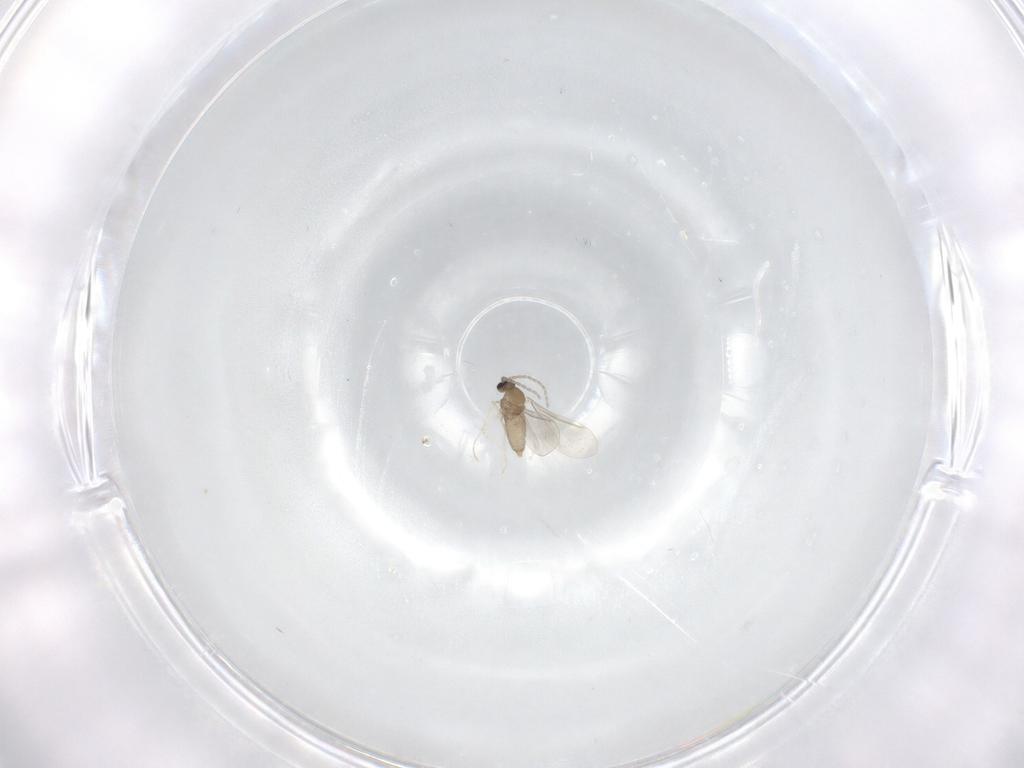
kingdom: Animalia
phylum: Arthropoda
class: Insecta
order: Diptera
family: Cecidomyiidae
